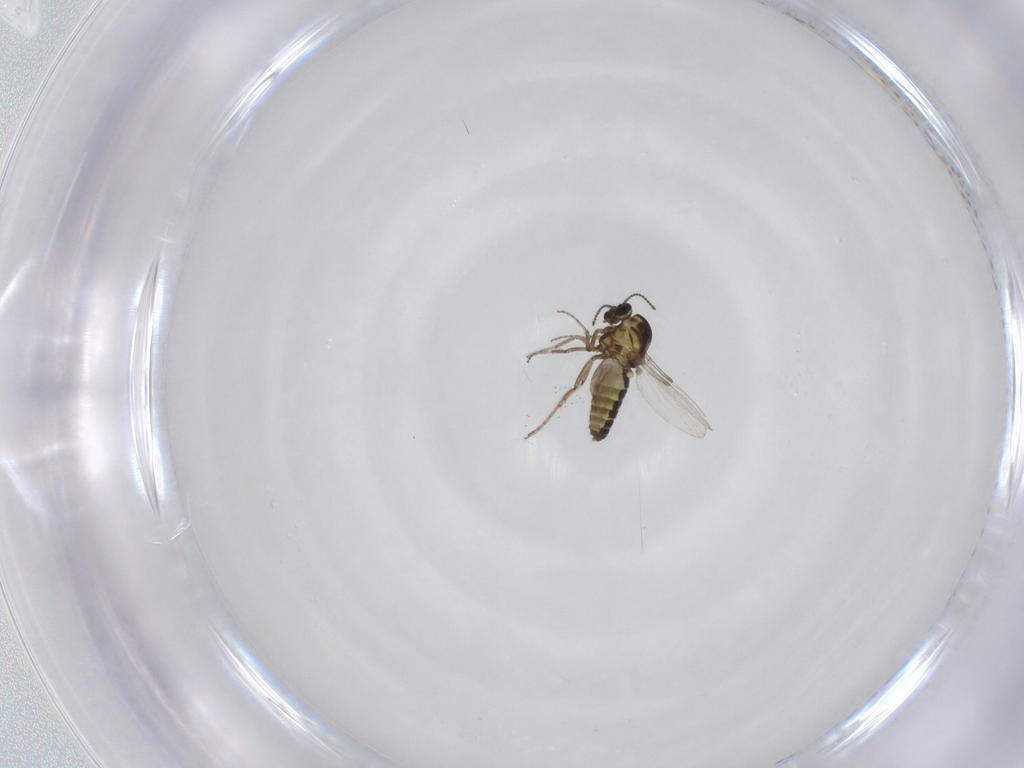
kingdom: Animalia
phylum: Arthropoda
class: Insecta
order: Diptera
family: Ceratopogonidae
